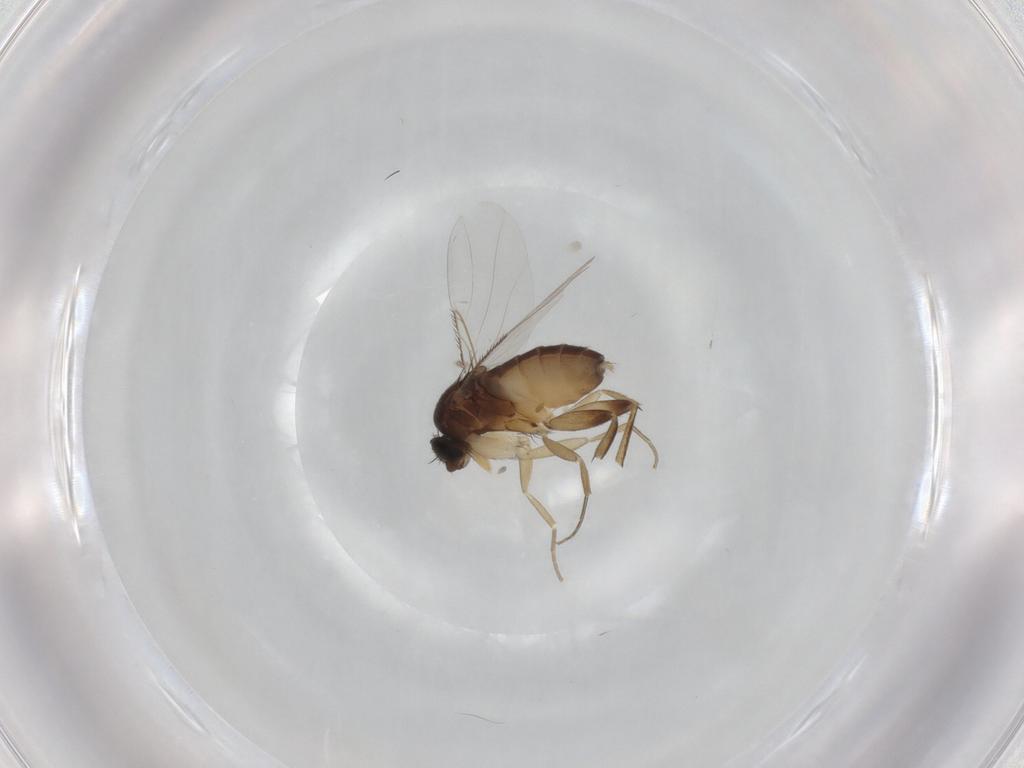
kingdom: Animalia
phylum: Arthropoda
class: Insecta
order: Diptera
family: Phoridae
